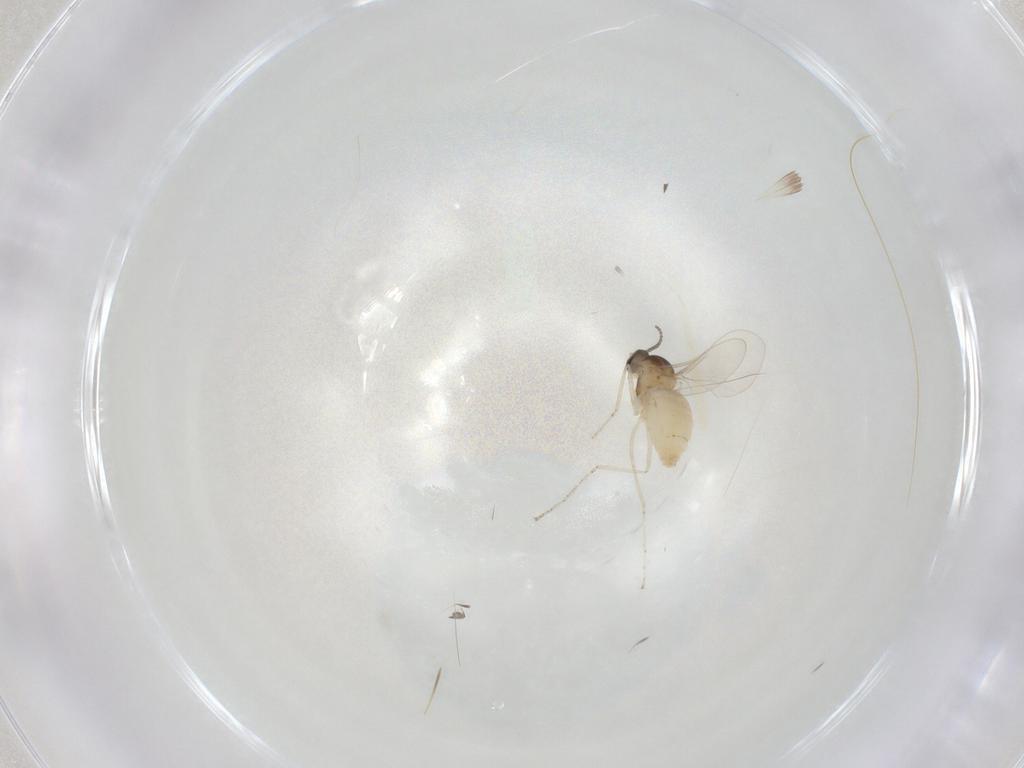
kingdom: Animalia
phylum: Arthropoda
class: Insecta
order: Diptera
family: Cecidomyiidae
